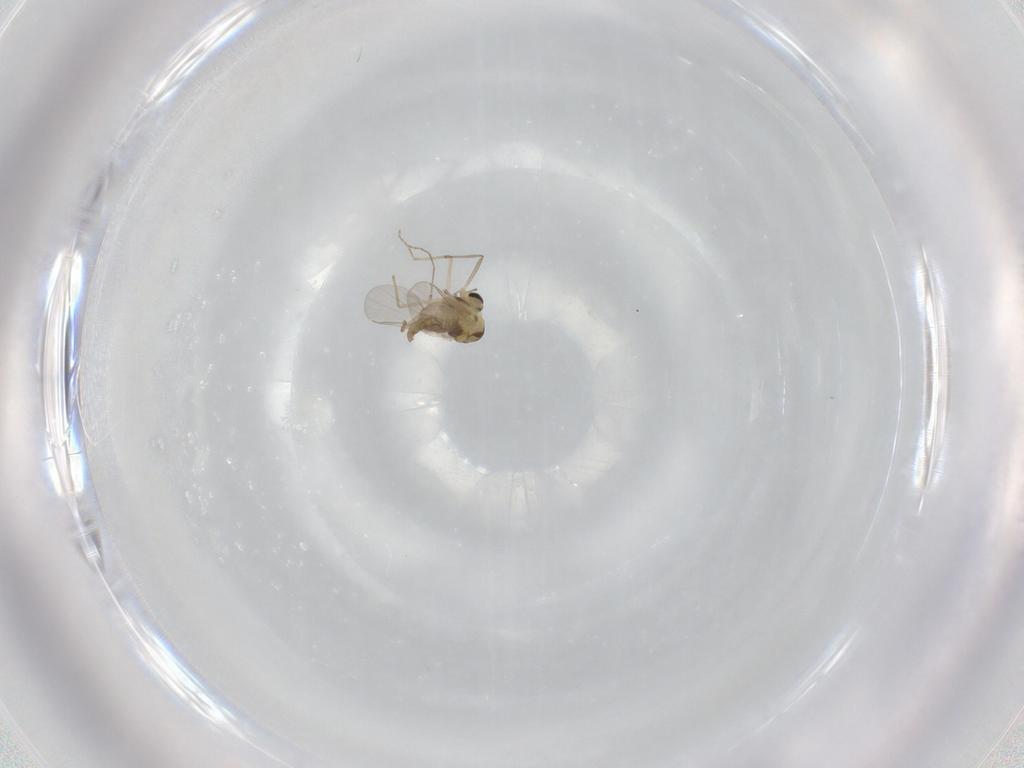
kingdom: Animalia
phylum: Arthropoda
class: Insecta
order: Diptera
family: Chironomidae
